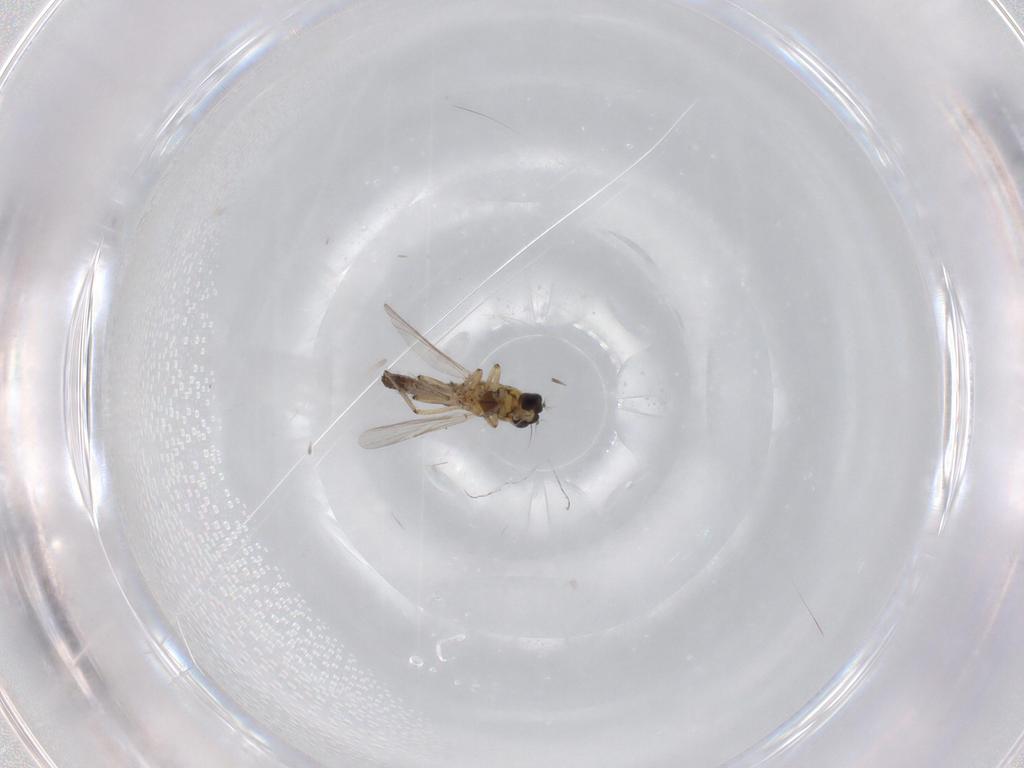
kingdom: Animalia
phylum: Arthropoda
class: Insecta
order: Diptera
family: Ceratopogonidae
